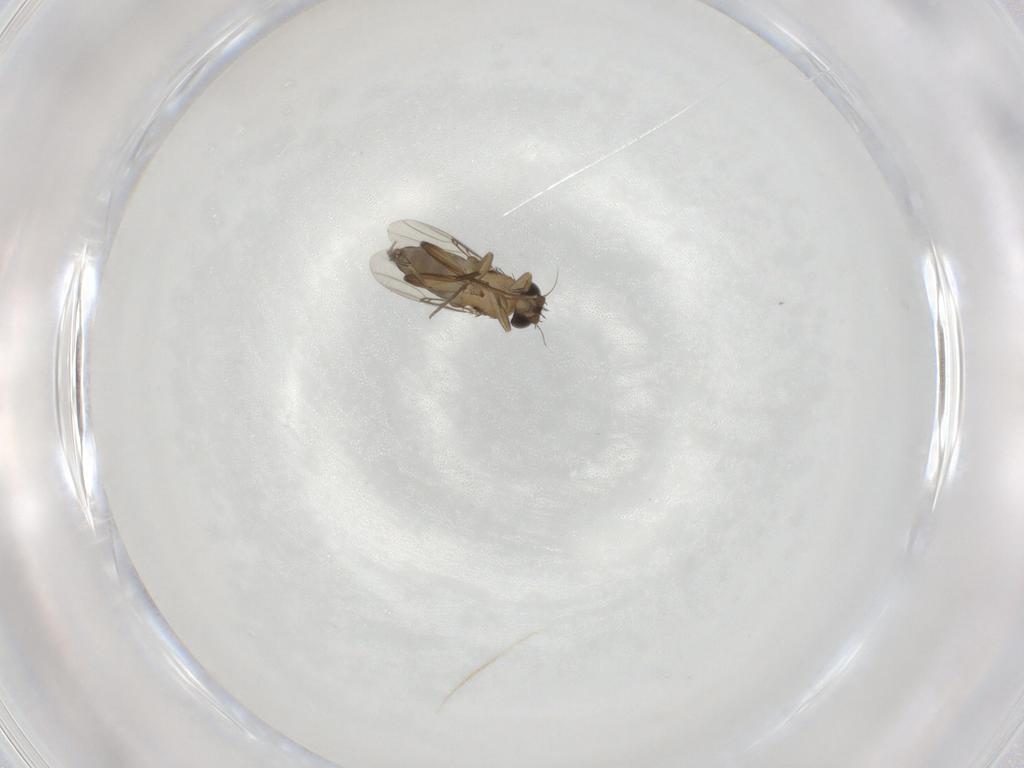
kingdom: Animalia
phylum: Arthropoda
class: Insecta
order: Diptera
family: Phoridae
